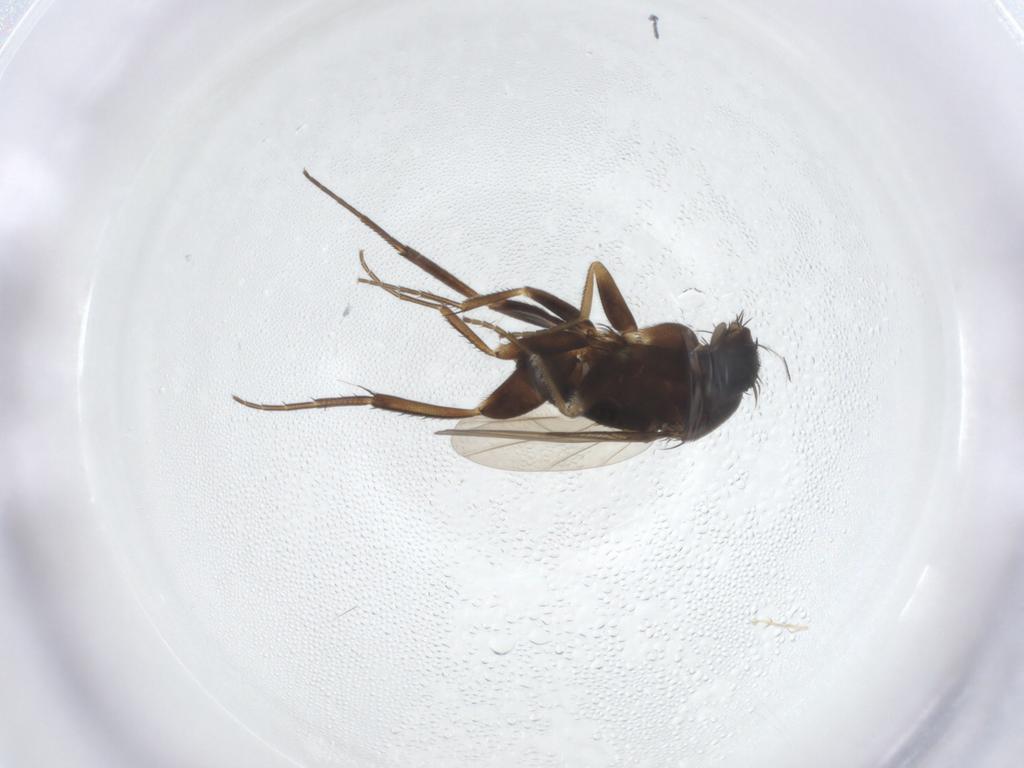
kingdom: Animalia
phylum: Arthropoda
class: Insecta
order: Diptera
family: Phoridae
